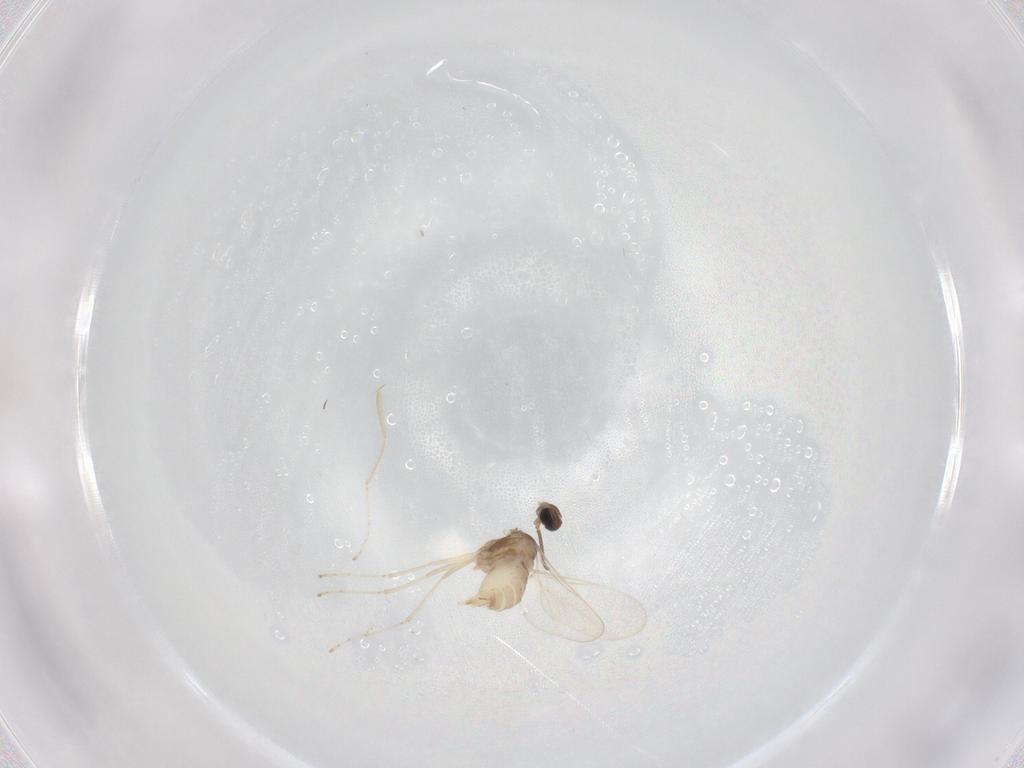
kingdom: Animalia
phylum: Arthropoda
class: Insecta
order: Diptera
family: Cecidomyiidae
